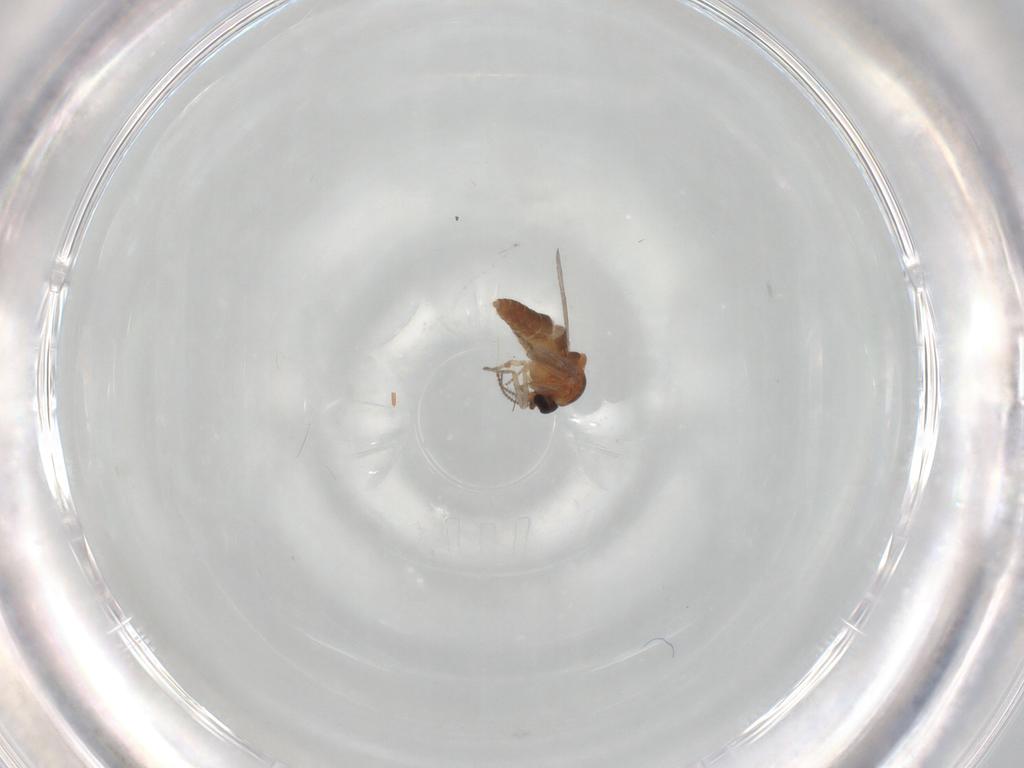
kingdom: Animalia
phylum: Arthropoda
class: Insecta
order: Diptera
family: Ceratopogonidae
